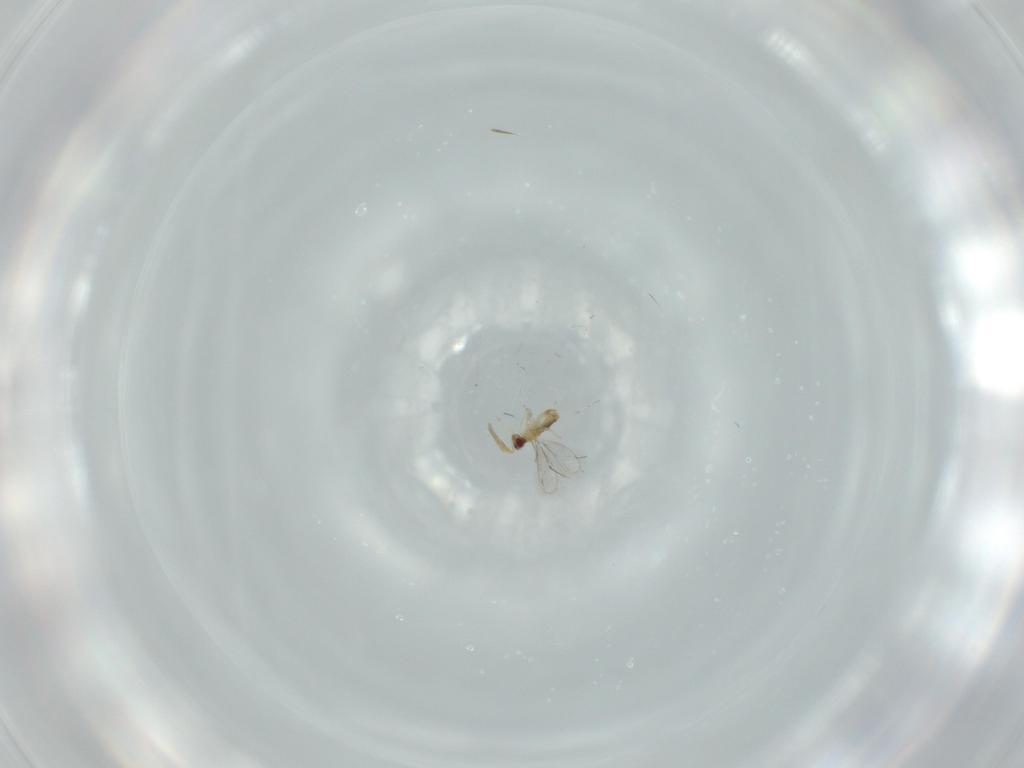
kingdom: Animalia
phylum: Arthropoda
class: Insecta
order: Hymenoptera
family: Aphelinidae
